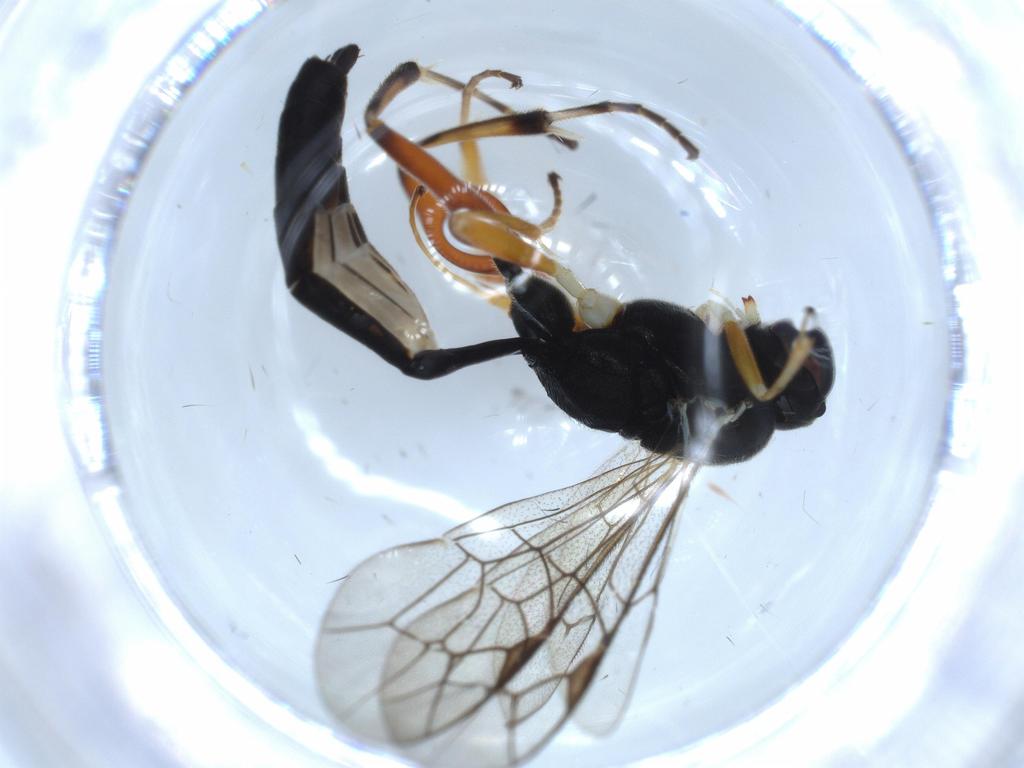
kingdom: Animalia
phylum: Arthropoda
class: Insecta
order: Hymenoptera
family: Ichneumonidae
